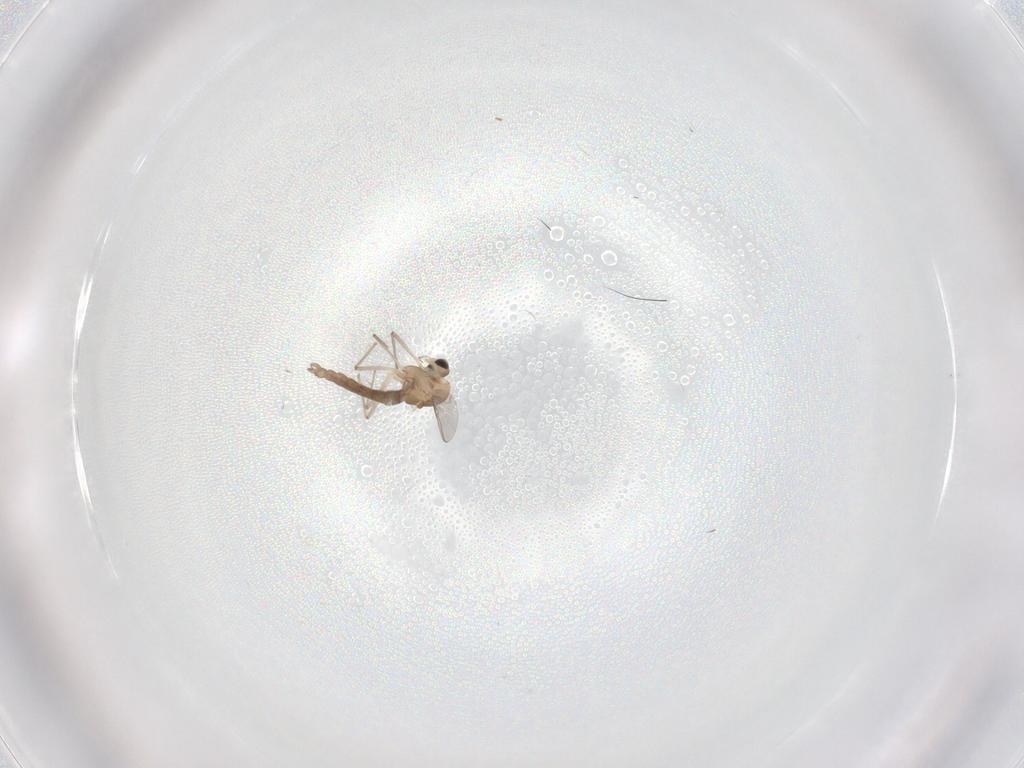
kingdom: Animalia
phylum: Arthropoda
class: Insecta
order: Diptera
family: Chironomidae
